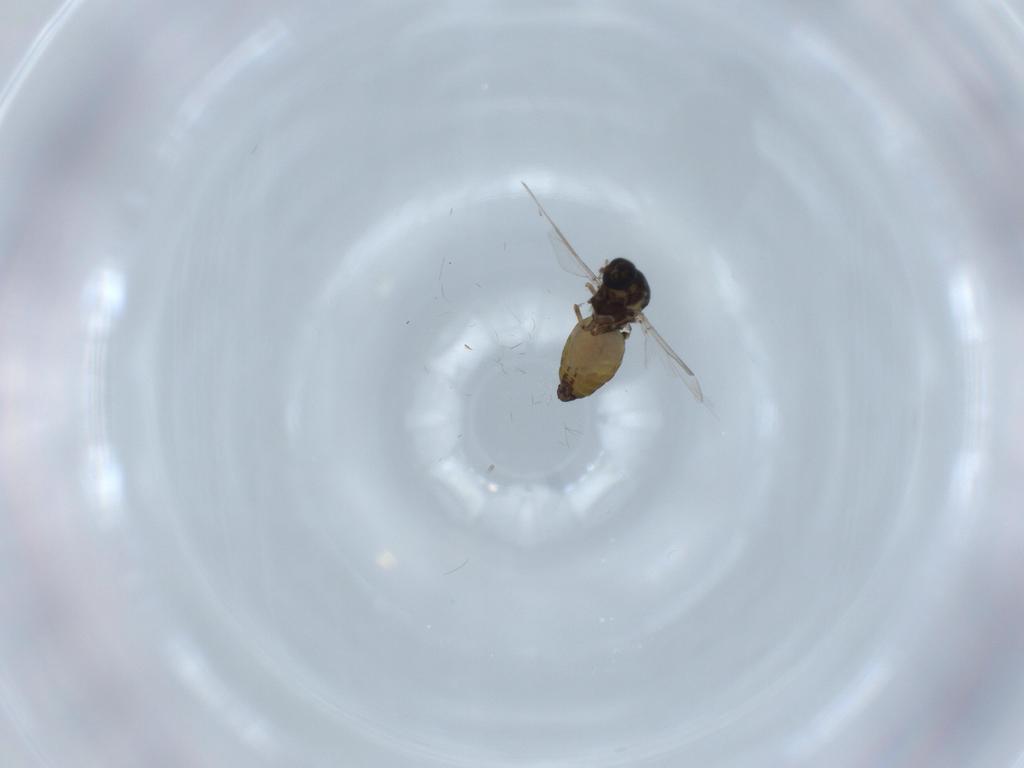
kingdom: Animalia
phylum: Arthropoda
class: Insecta
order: Diptera
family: Ceratopogonidae
